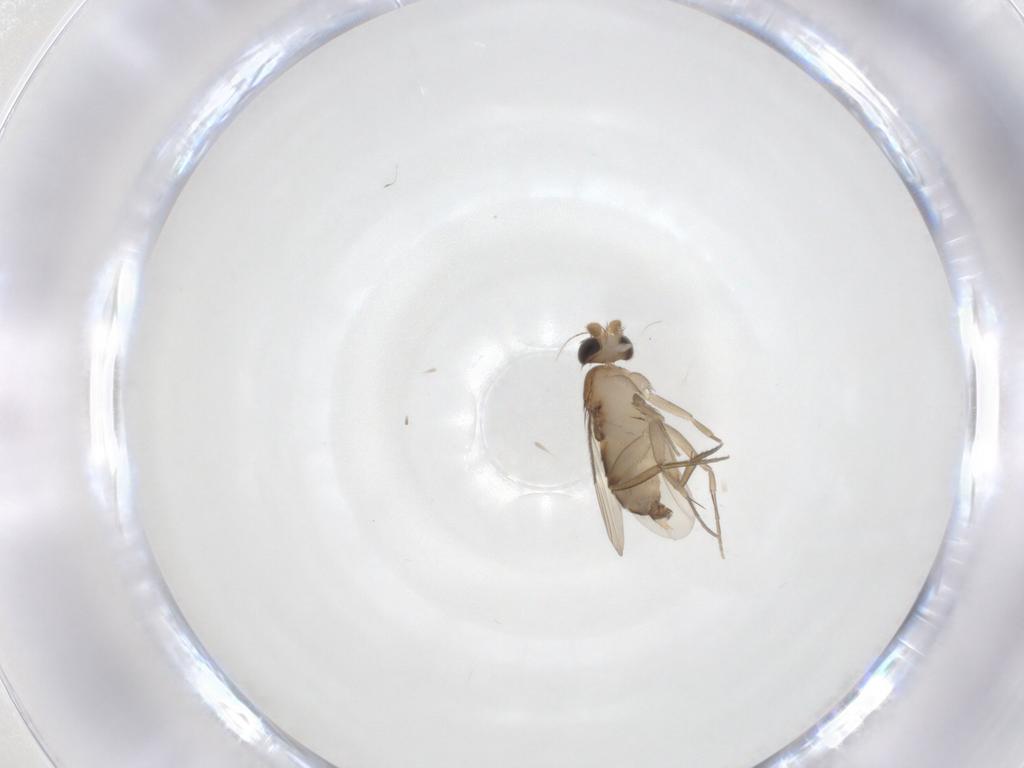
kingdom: Animalia
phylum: Arthropoda
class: Insecta
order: Diptera
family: Phoridae
